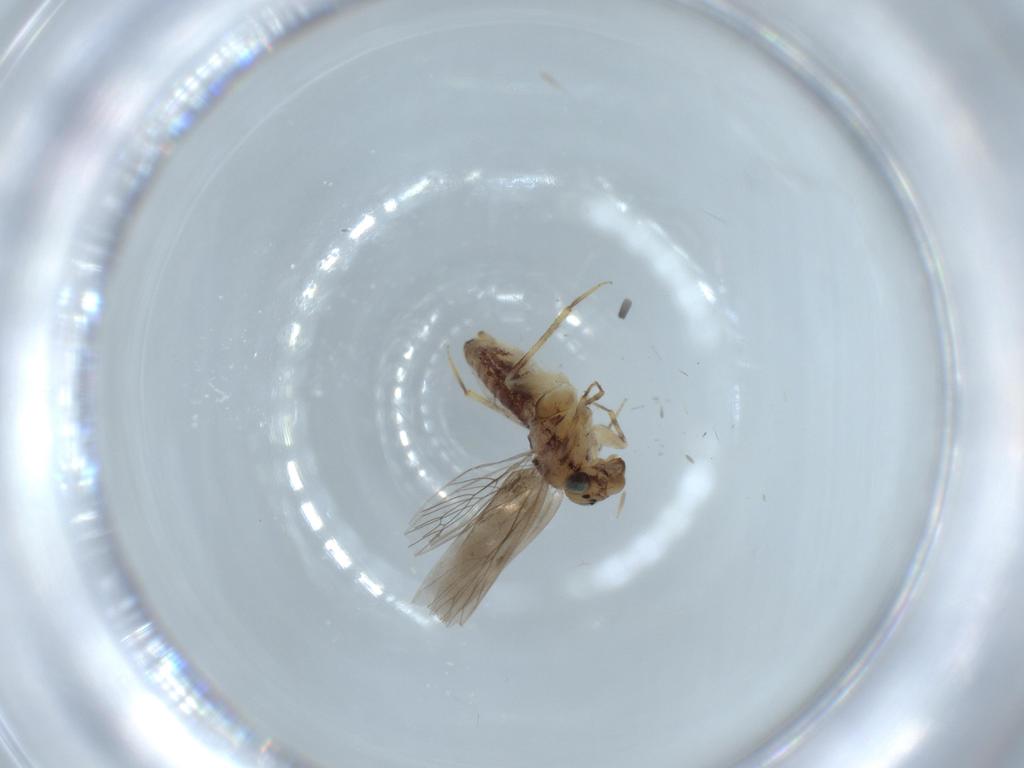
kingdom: Animalia
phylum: Arthropoda
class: Insecta
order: Psocodea
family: Lepidopsocidae
